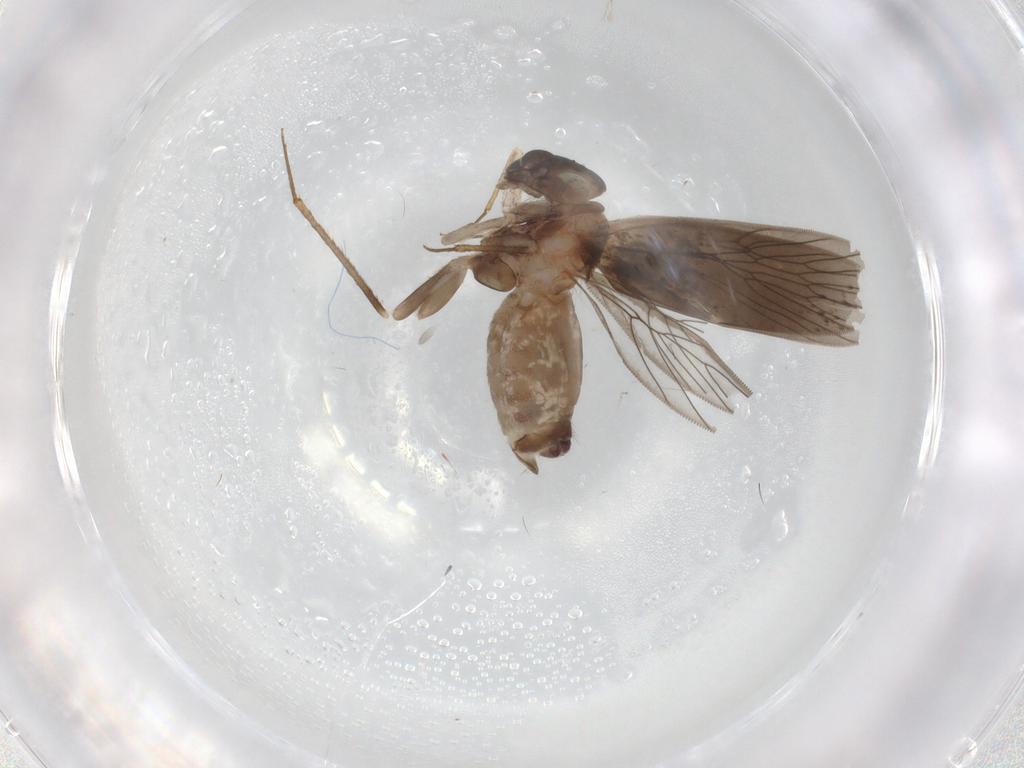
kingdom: Animalia
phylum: Arthropoda
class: Insecta
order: Psocodea
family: Lepidopsocidae
